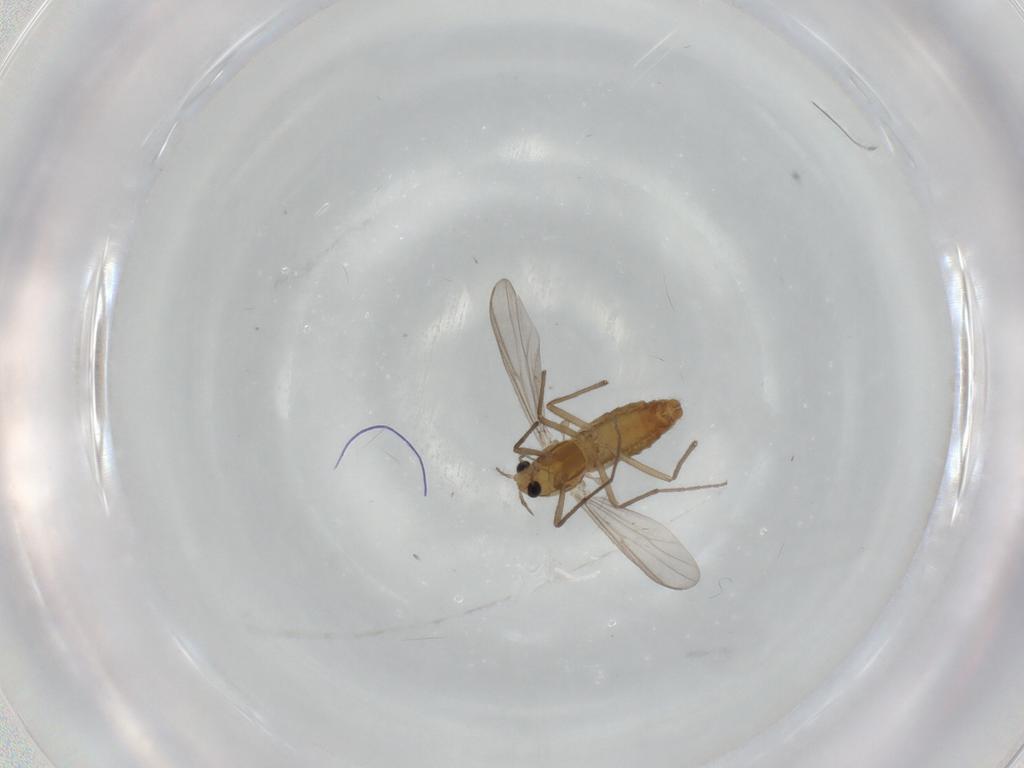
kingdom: Animalia
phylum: Arthropoda
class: Insecta
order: Diptera
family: Chironomidae
